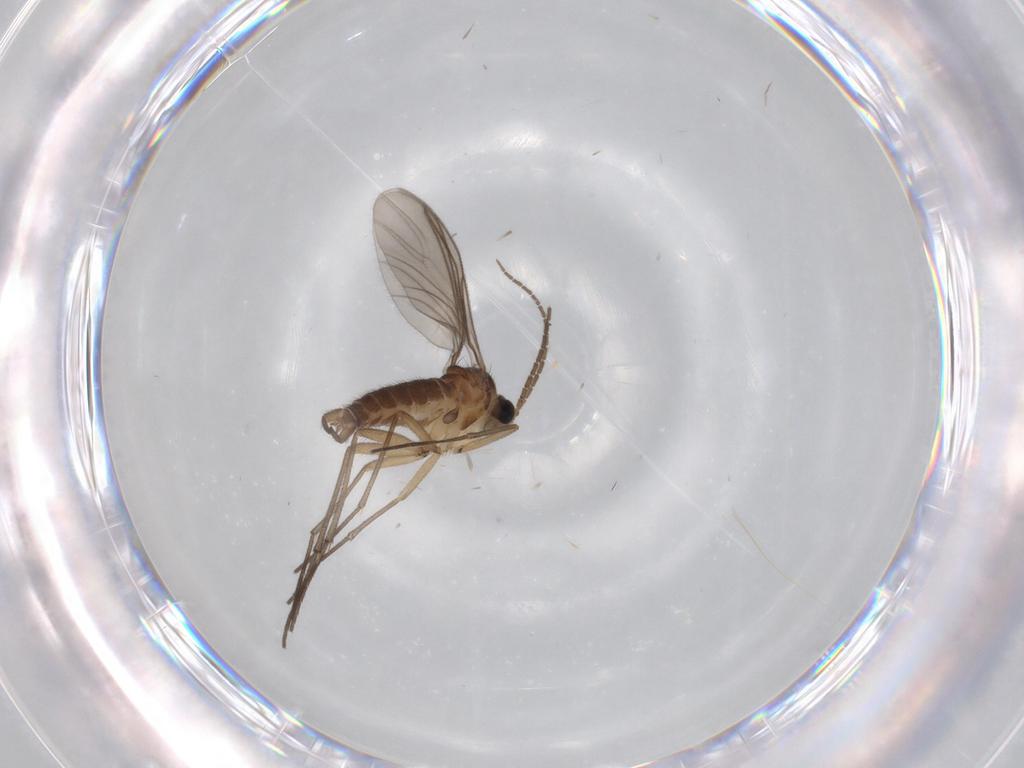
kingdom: Animalia
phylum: Arthropoda
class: Insecta
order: Diptera
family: Sciaridae
